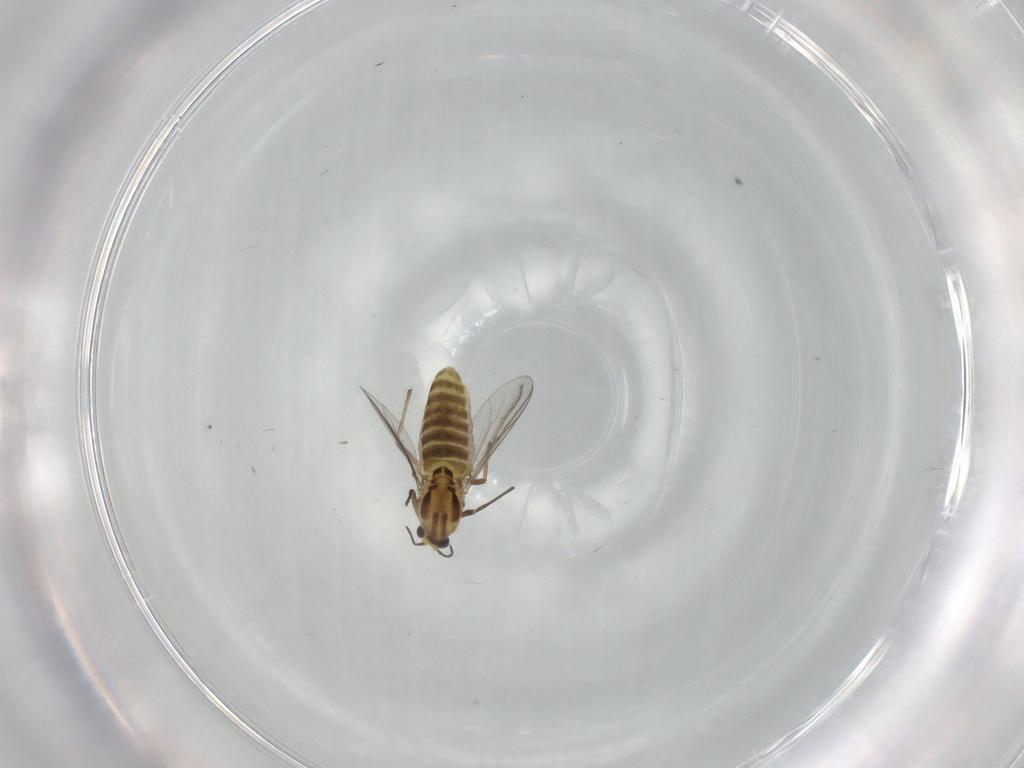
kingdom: Animalia
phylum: Arthropoda
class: Insecta
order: Diptera
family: Chironomidae
